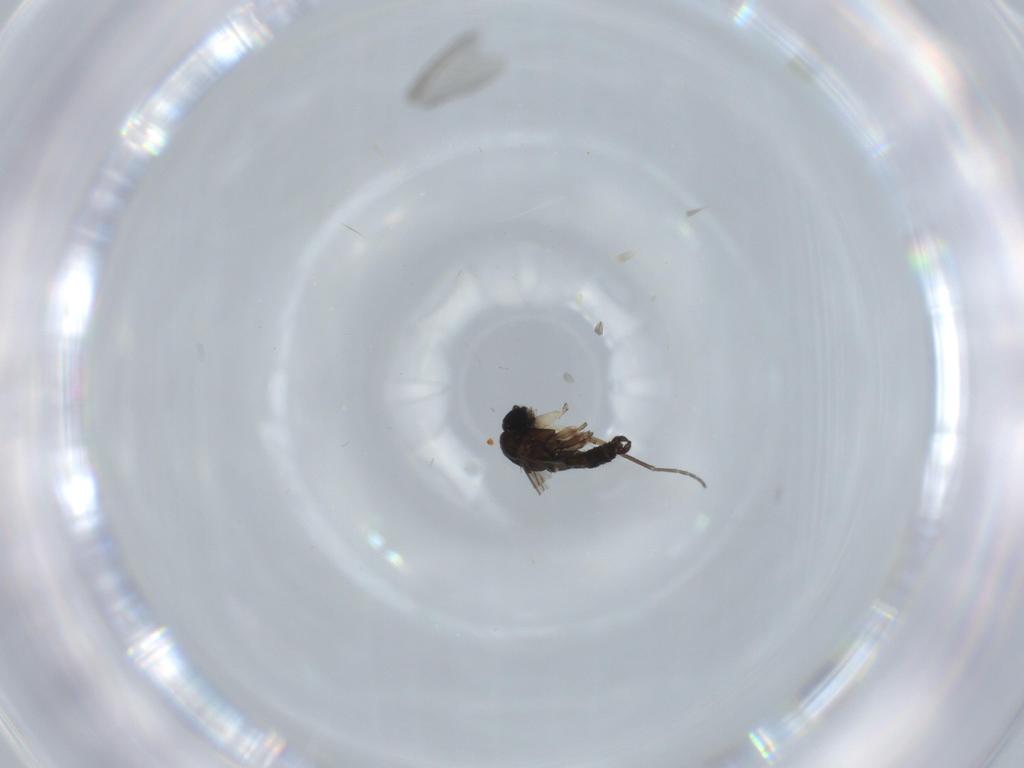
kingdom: Animalia
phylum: Arthropoda
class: Insecta
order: Diptera
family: Sciaridae
